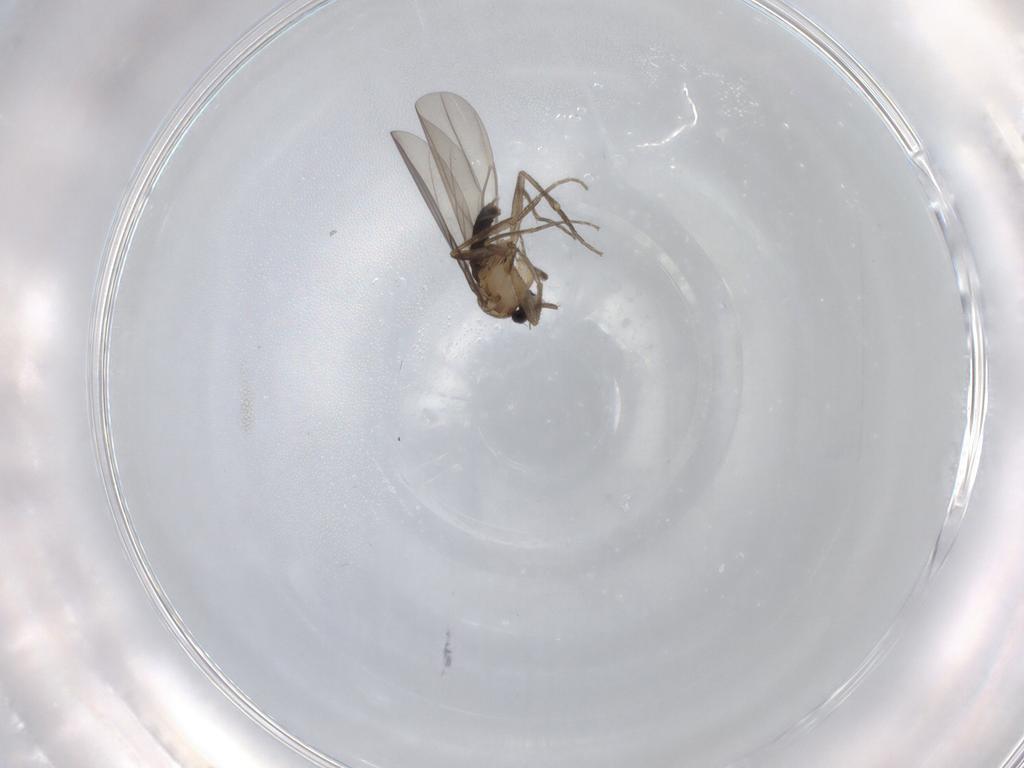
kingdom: Animalia
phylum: Arthropoda
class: Insecta
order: Diptera
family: Phoridae
